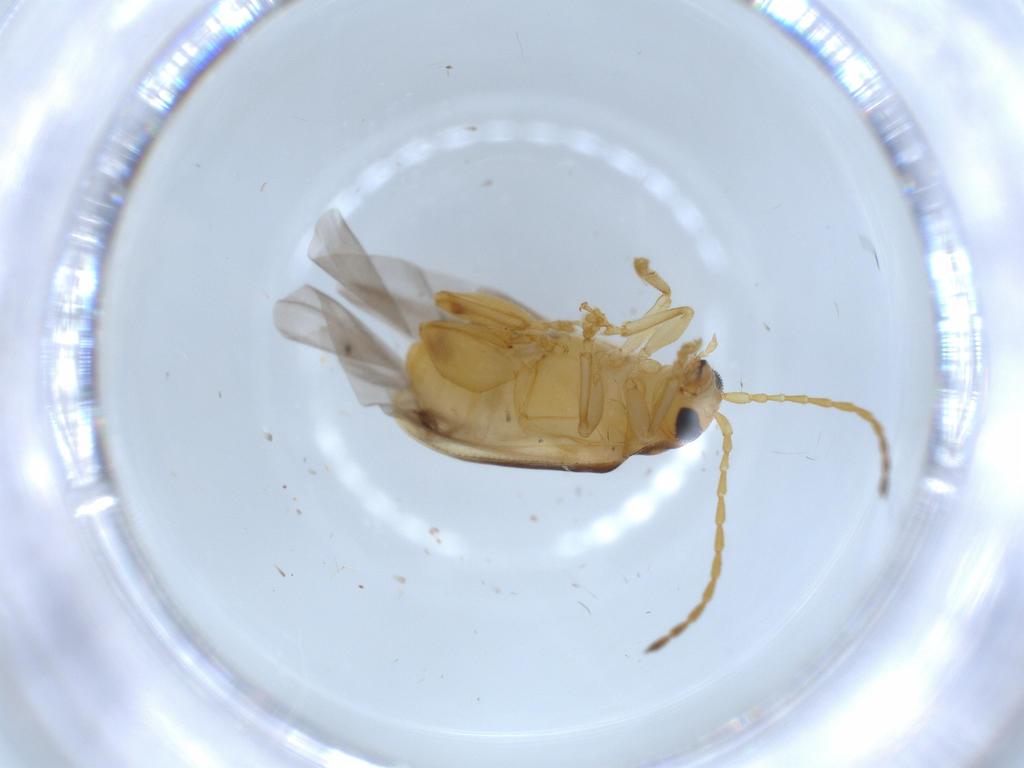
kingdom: Animalia
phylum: Arthropoda
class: Insecta
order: Coleoptera
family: Chrysomelidae
